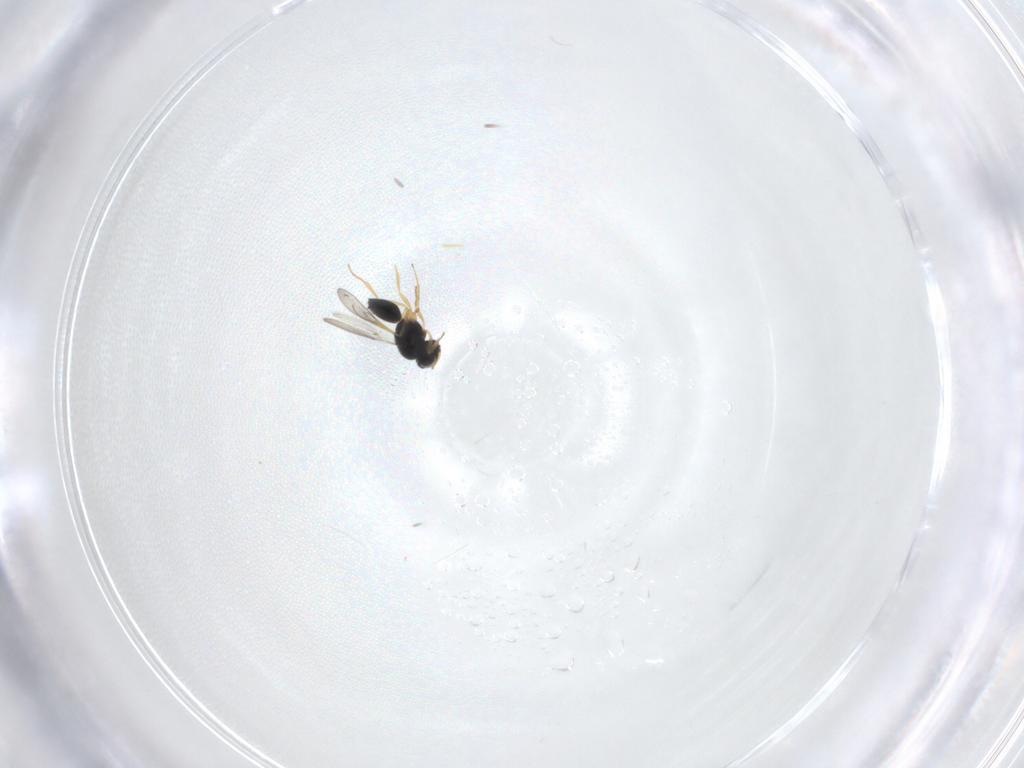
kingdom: Animalia
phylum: Arthropoda
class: Insecta
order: Hymenoptera
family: Scelionidae
